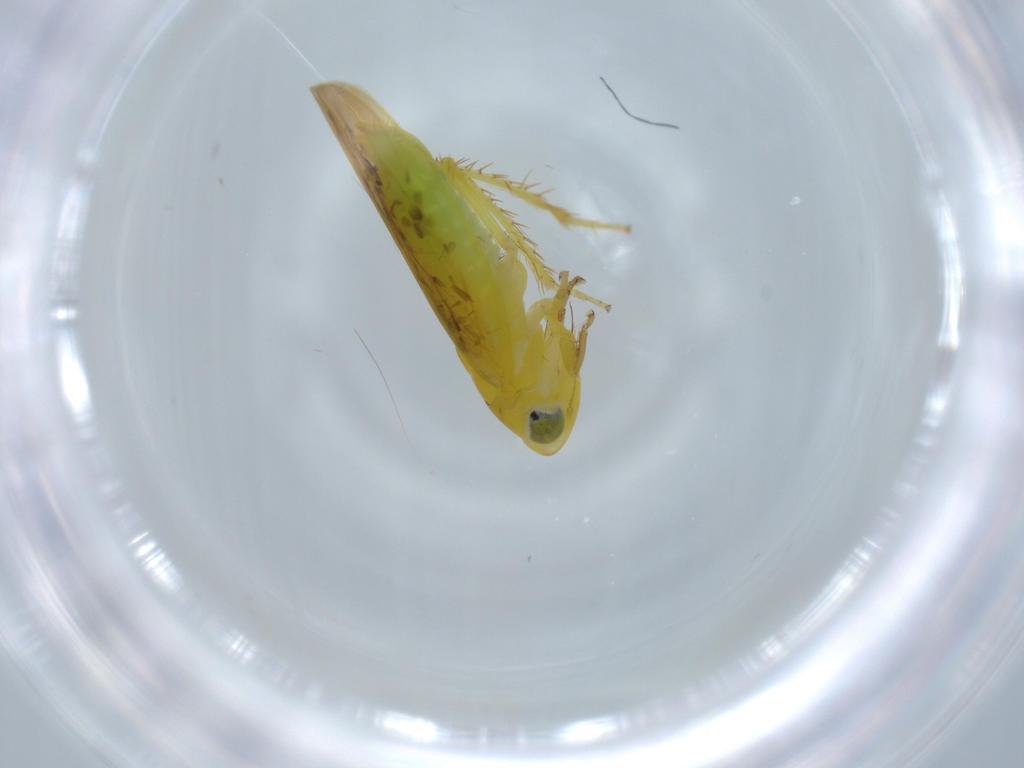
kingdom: Animalia
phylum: Arthropoda
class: Insecta
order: Hemiptera
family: Cicadellidae
